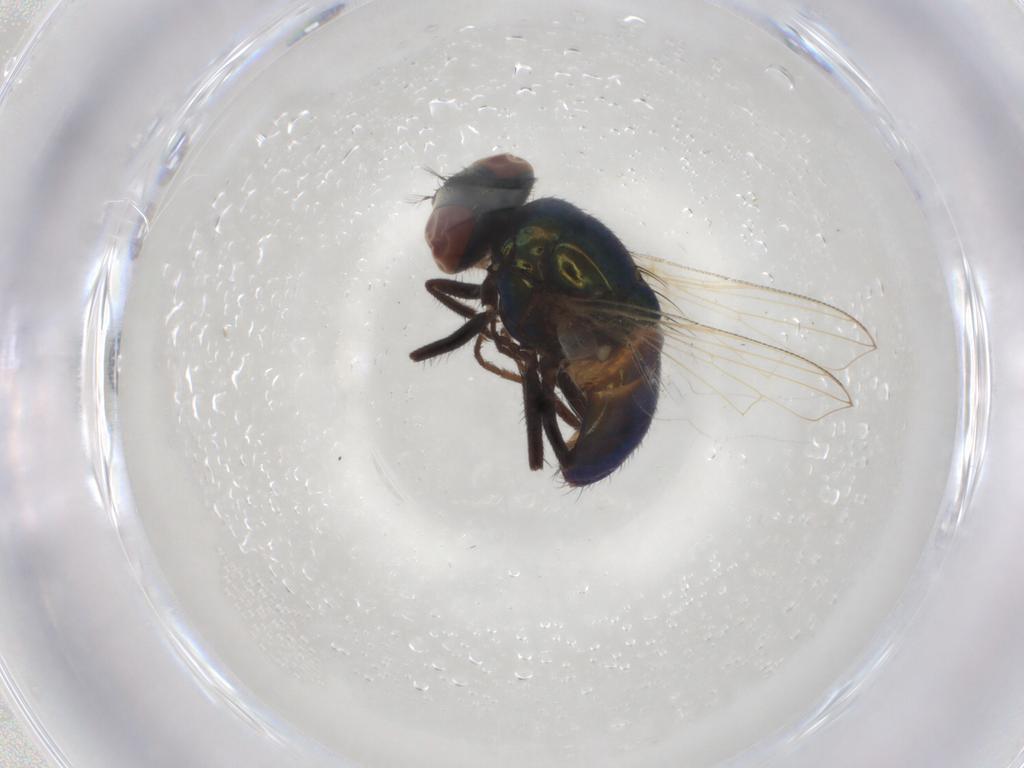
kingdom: Animalia
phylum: Arthropoda
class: Insecta
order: Diptera
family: Muscidae
